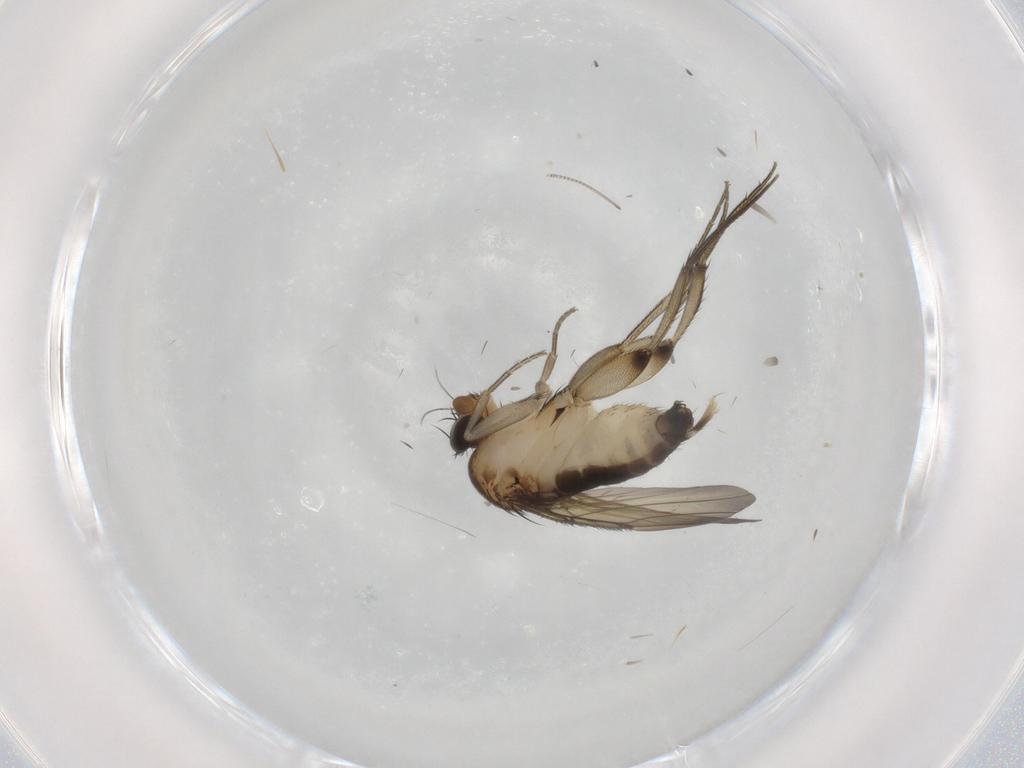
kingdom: Animalia
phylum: Arthropoda
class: Insecta
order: Diptera
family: Phoridae
